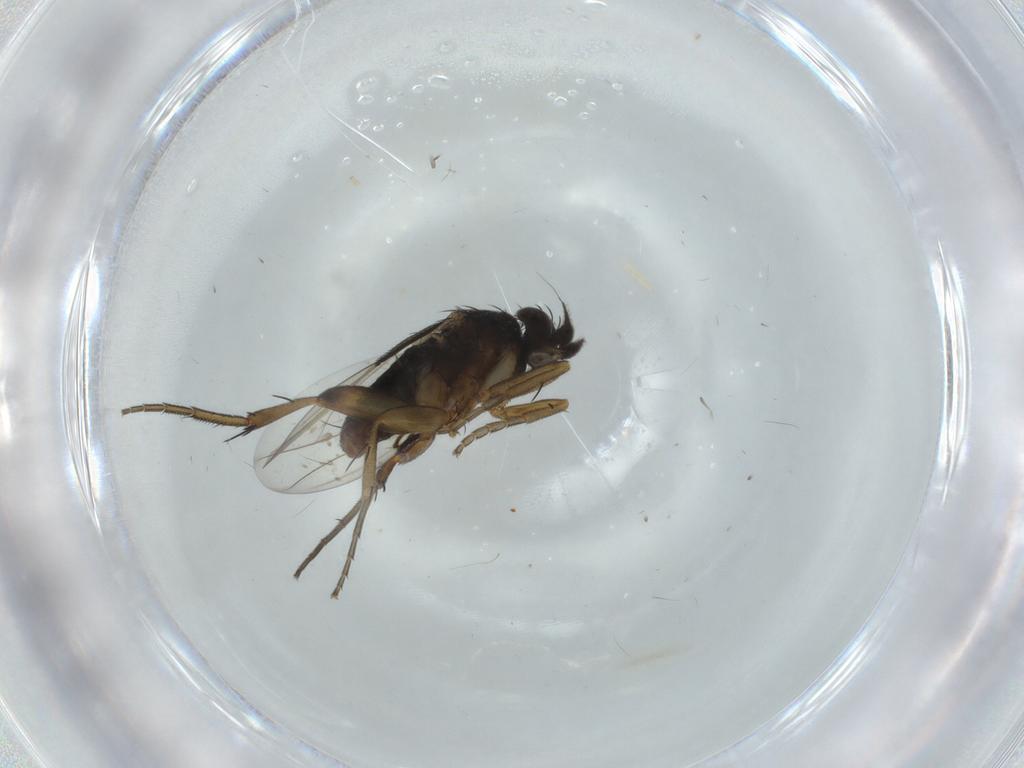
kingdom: Animalia
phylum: Arthropoda
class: Insecta
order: Diptera
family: Phoridae
